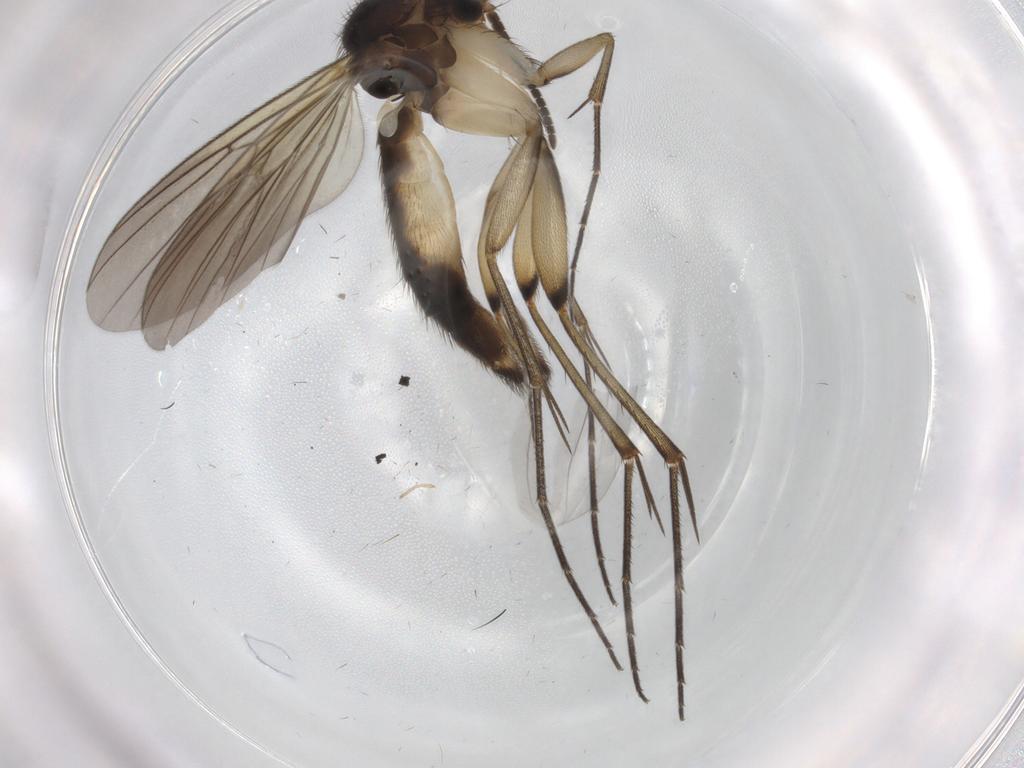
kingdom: Animalia
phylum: Arthropoda
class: Insecta
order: Diptera
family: Mycetophilidae
